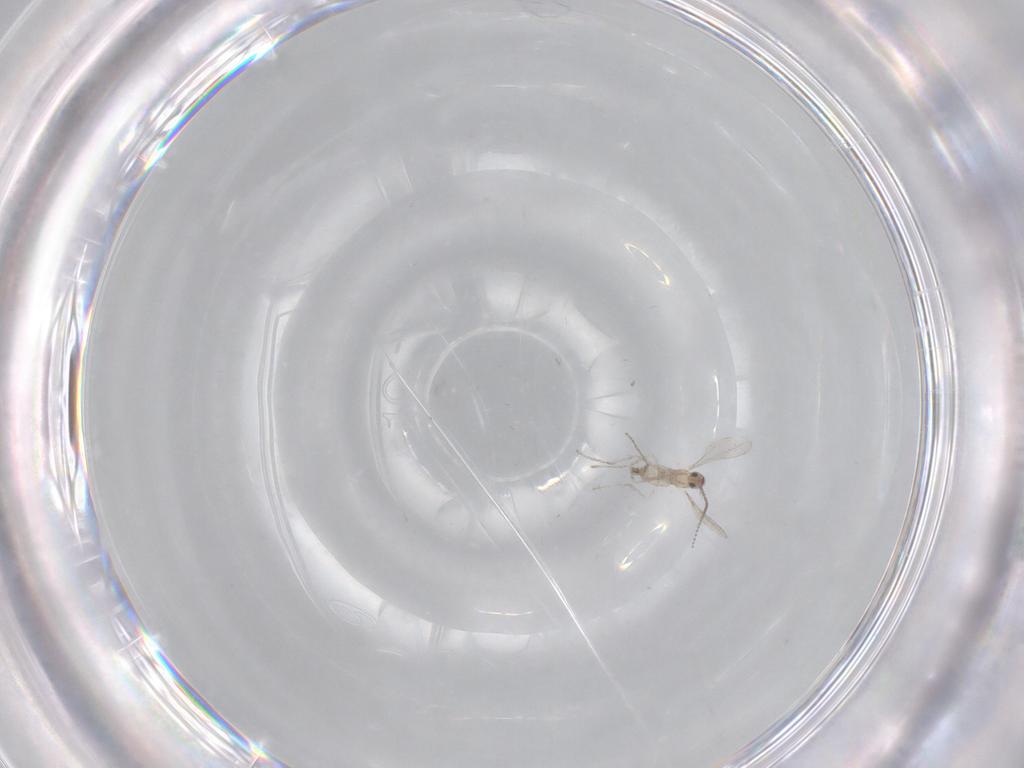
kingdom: Animalia
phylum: Arthropoda
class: Insecta
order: Diptera
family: Cecidomyiidae
